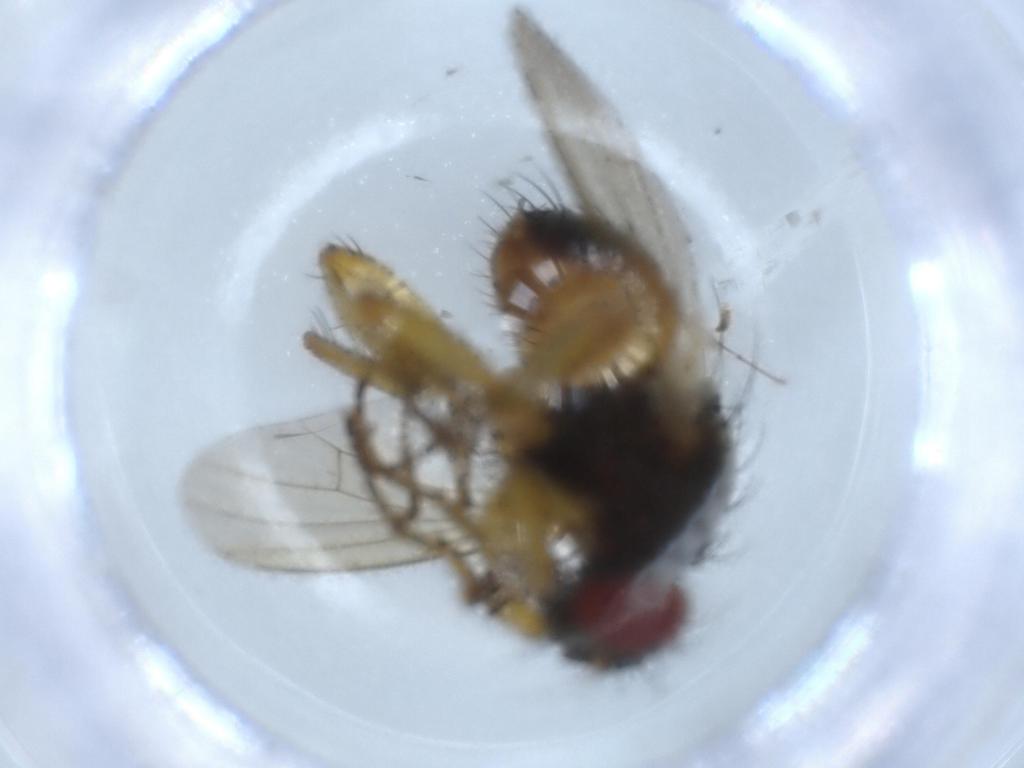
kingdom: Animalia
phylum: Arthropoda
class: Insecta
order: Diptera
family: Muscidae
